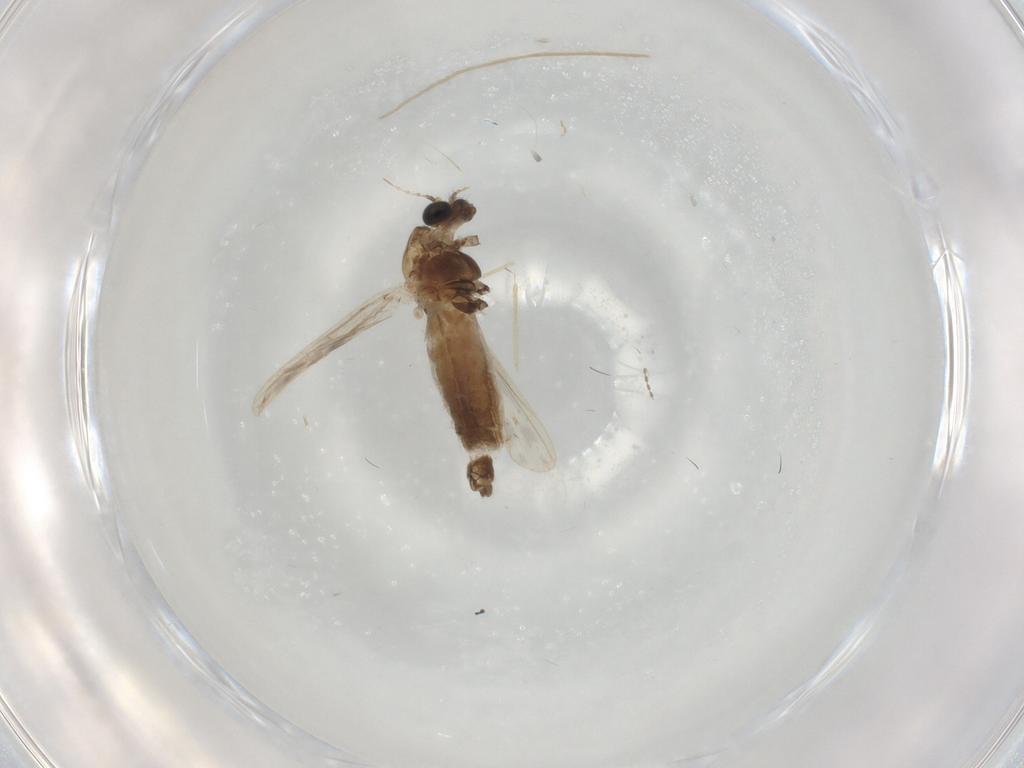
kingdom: Animalia
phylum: Arthropoda
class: Insecta
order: Diptera
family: Chironomidae
